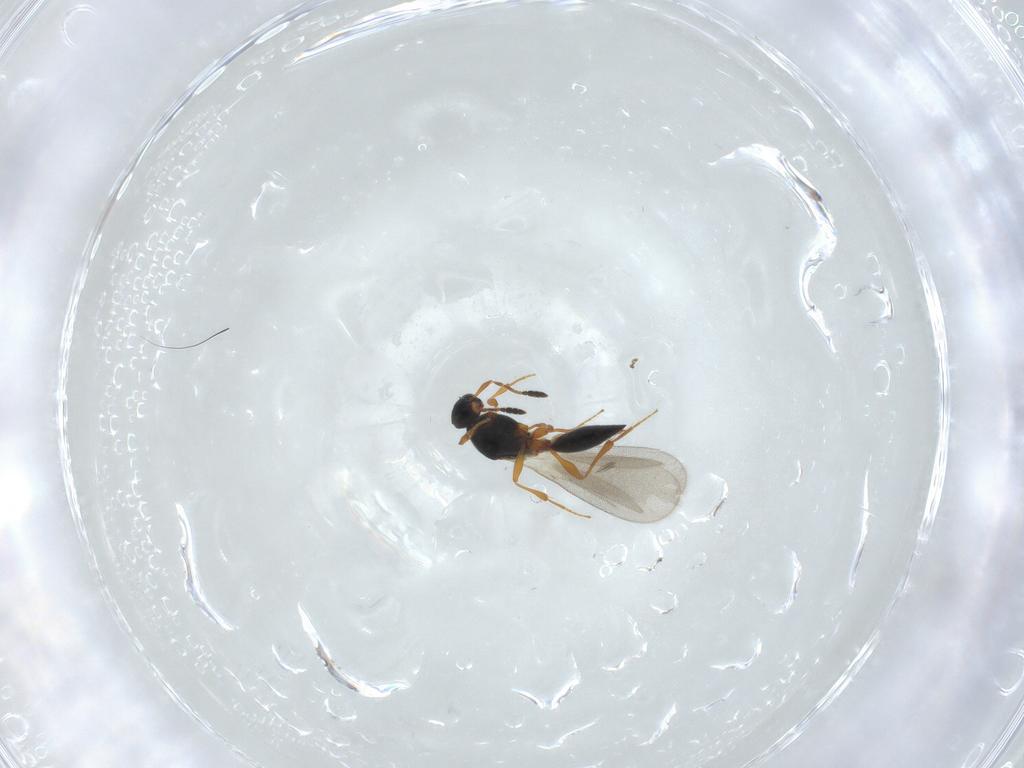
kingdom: Animalia
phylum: Arthropoda
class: Insecta
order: Hymenoptera
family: Platygastridae
